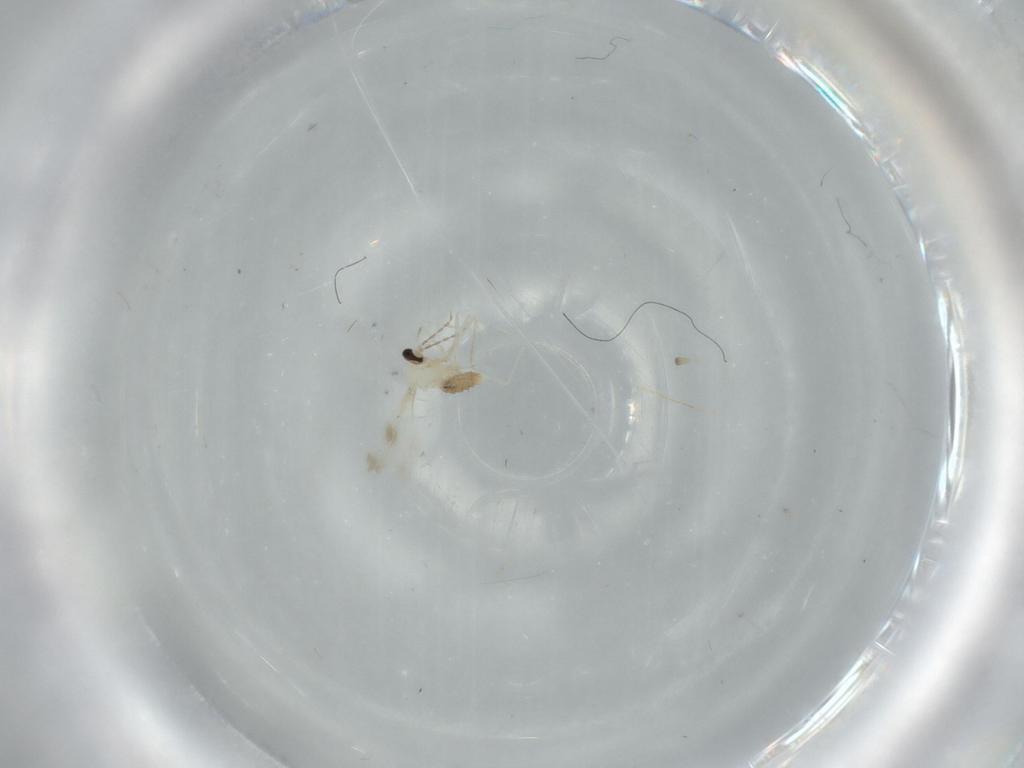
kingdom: Animalia
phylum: Arthropoda
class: Insecta
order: Diptera
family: Cecidomyiidae
